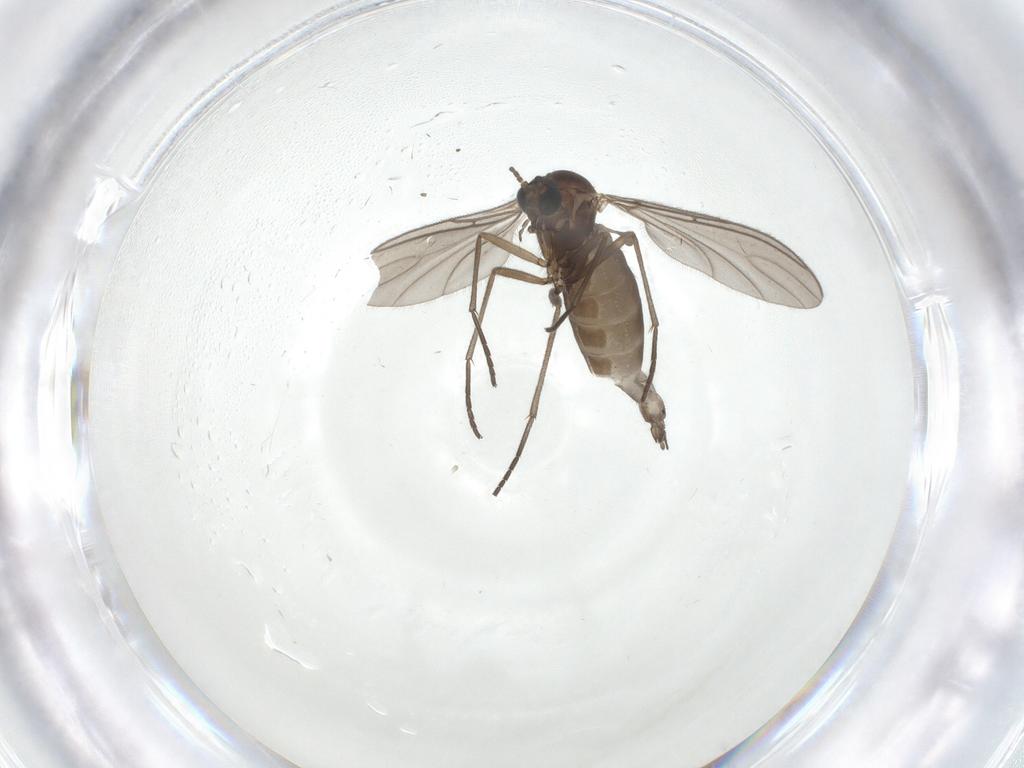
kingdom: Animalia
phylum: Arthropoda
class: Insecta
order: Diptera
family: Sciaridae
